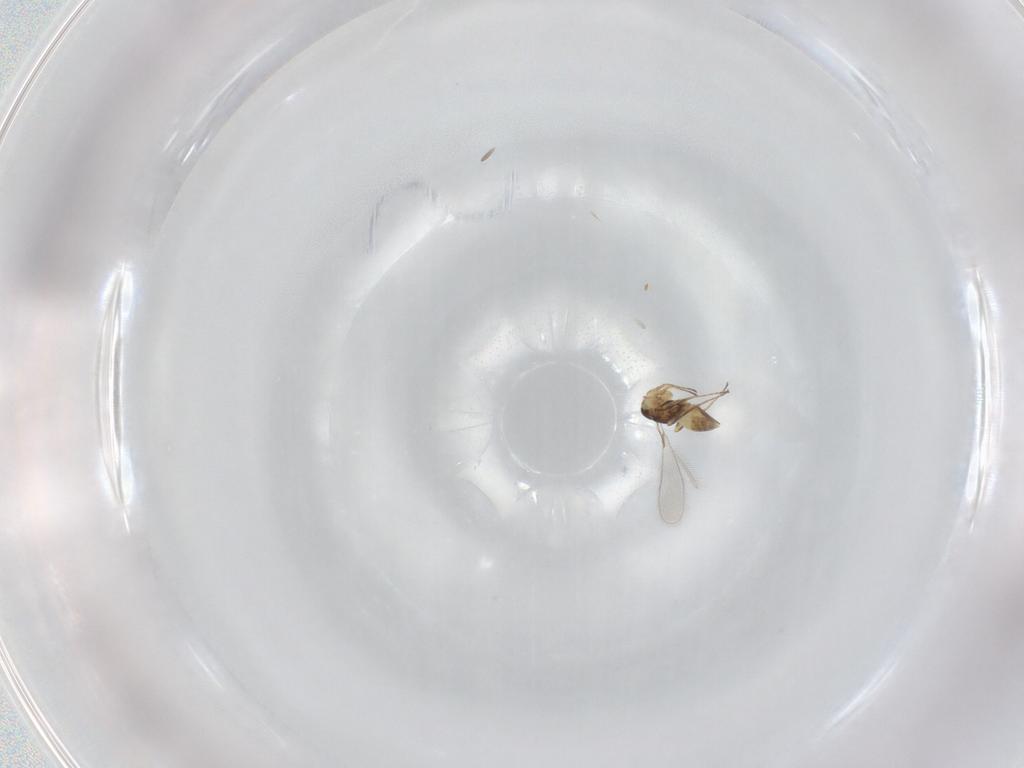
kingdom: Animalia
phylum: Arthropoda
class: Insecta
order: Hymenoptera
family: Mymaridae
